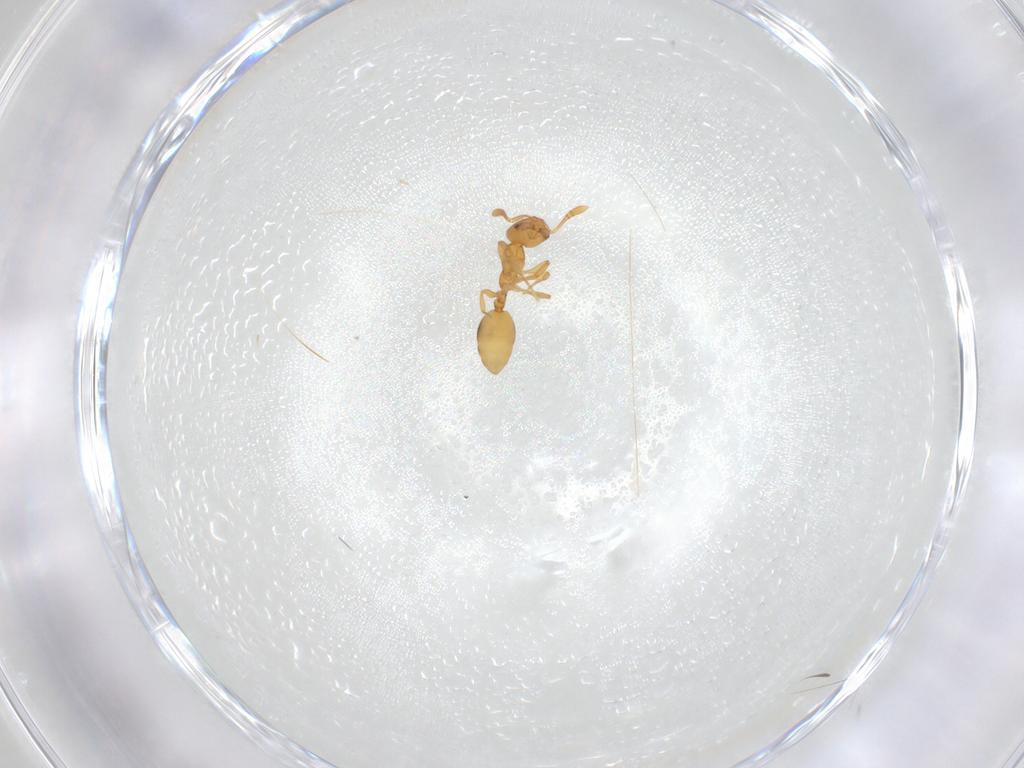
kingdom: Animalia
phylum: Arthropoda
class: Insecta
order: Hymenoptera
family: Formicidae
